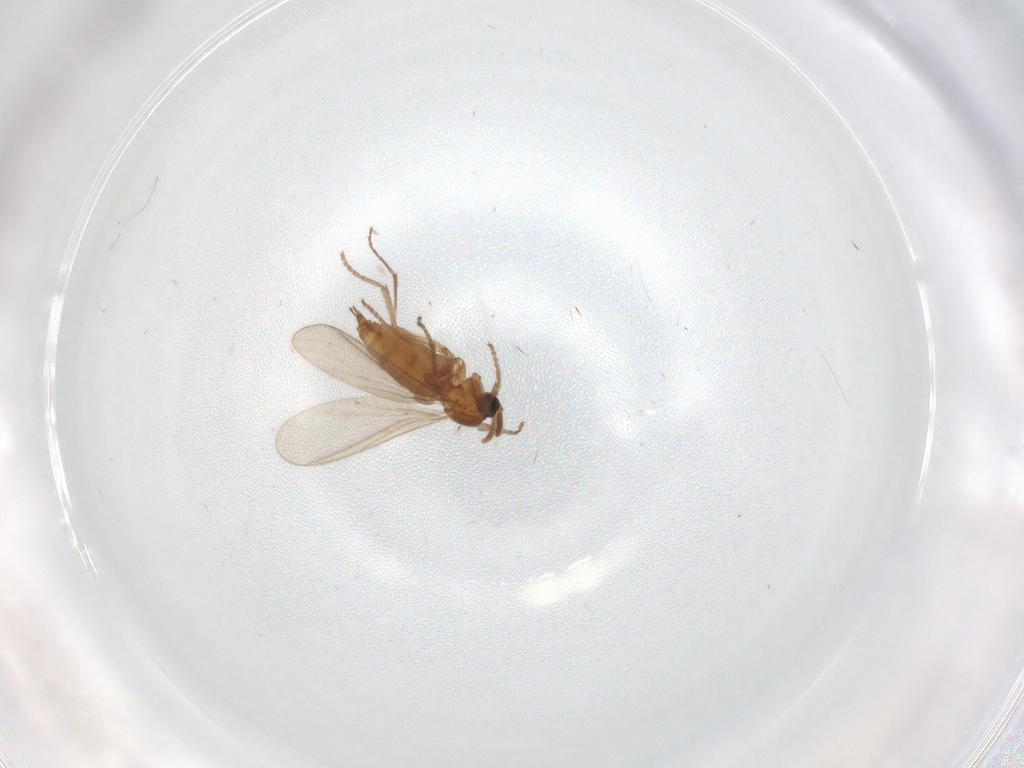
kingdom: Animalia
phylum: Arthropoda
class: Insecta
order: Diptera
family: Sciaridae
